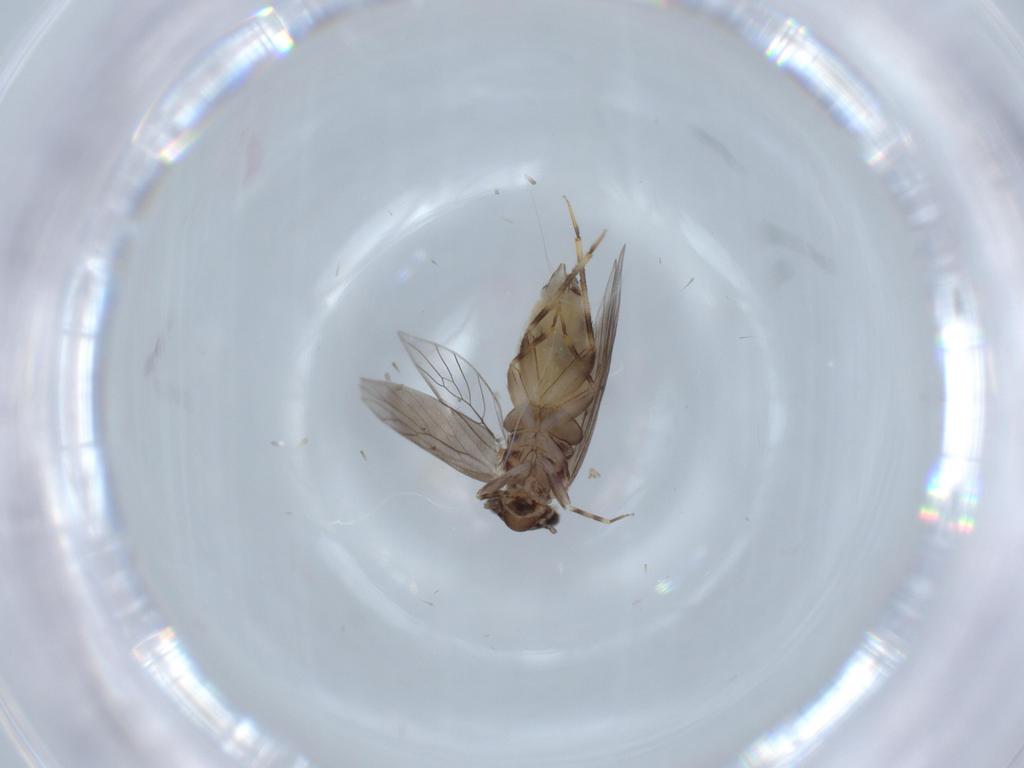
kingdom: Animalia
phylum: Arthropoda
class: Insecta
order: Psocodea
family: Lepidopsocidae
